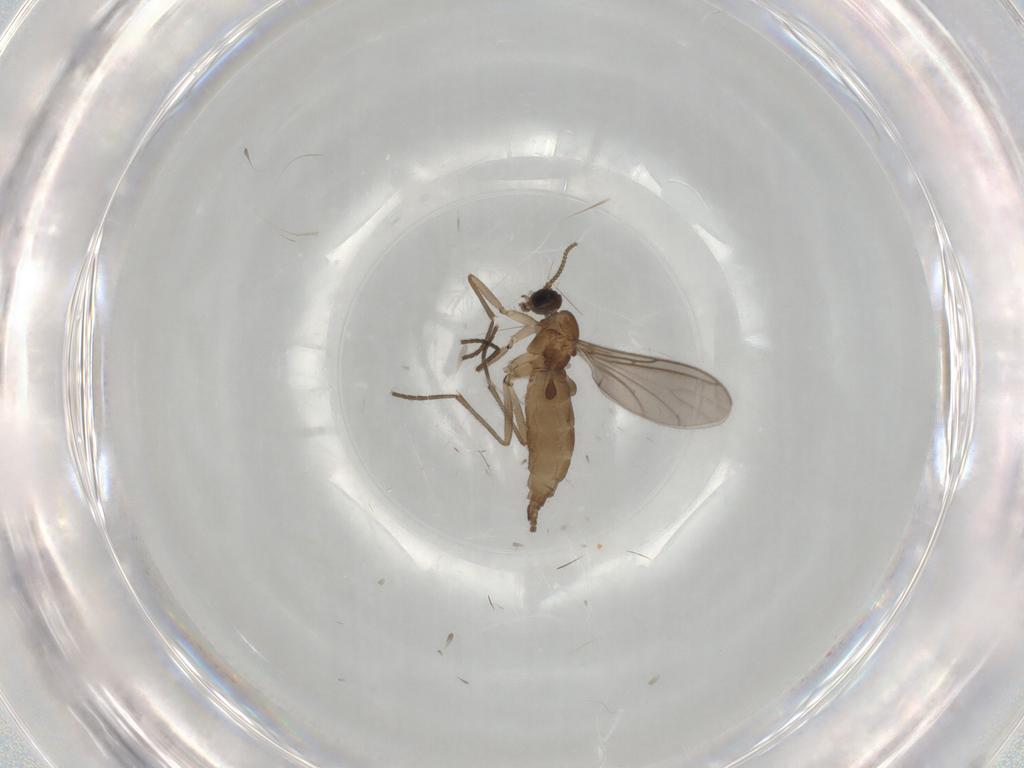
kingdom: Animalia
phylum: Arthropoda
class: Insecta
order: Diptera
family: Sciaridae
